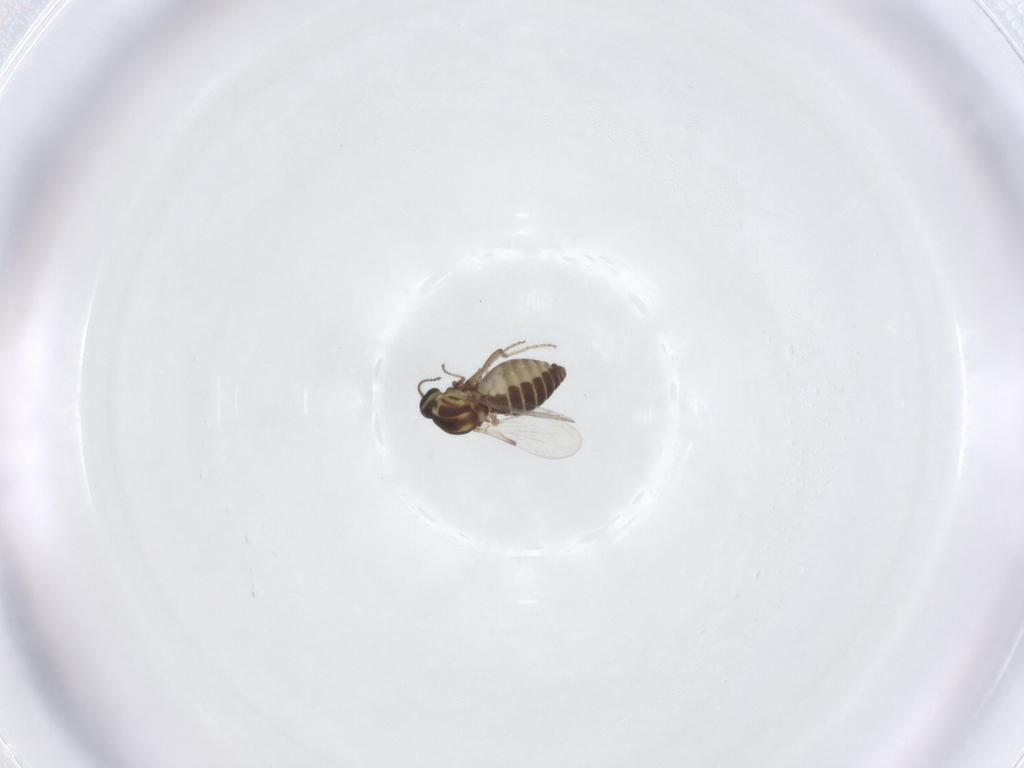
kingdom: Animalia
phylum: Arthropoda
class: Insecta
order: Diptera
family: Ceratopogonidae
